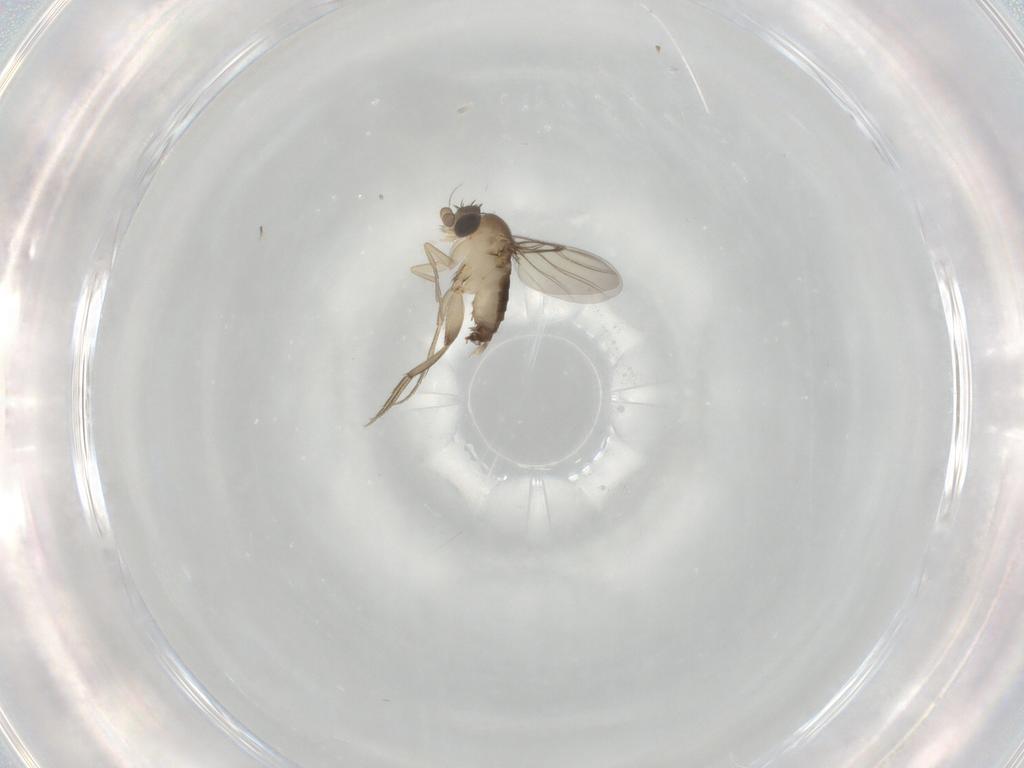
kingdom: Animalia
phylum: Arthropoda
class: Insecta
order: Diptera
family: Phoridae
